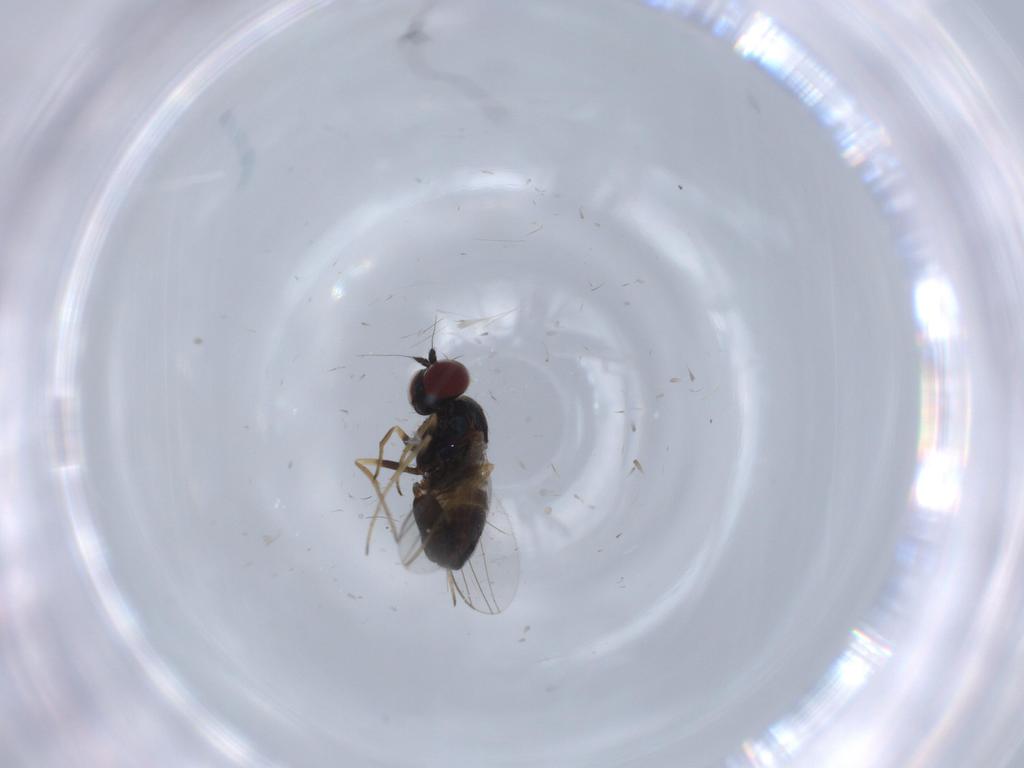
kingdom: Animalia
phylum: Arthropoda
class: Insecta
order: Diptera
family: Dolichopodidae
